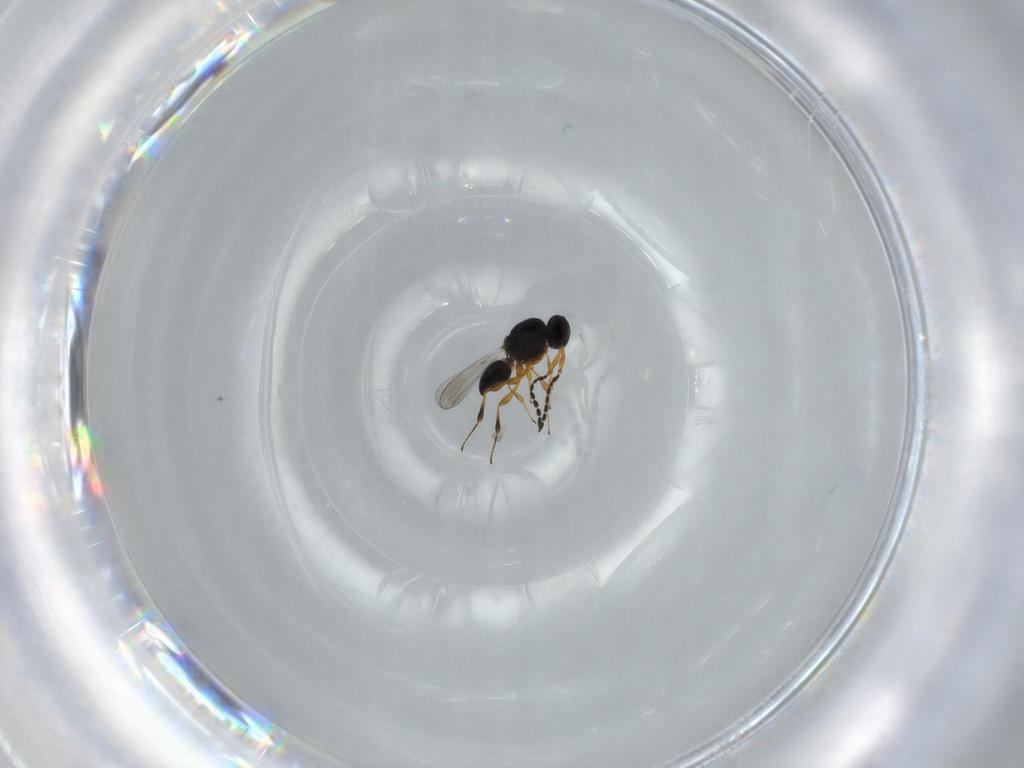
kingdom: Animalia
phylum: Arthropoda
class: Insecta
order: Hymenoptera
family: Platygastridae
